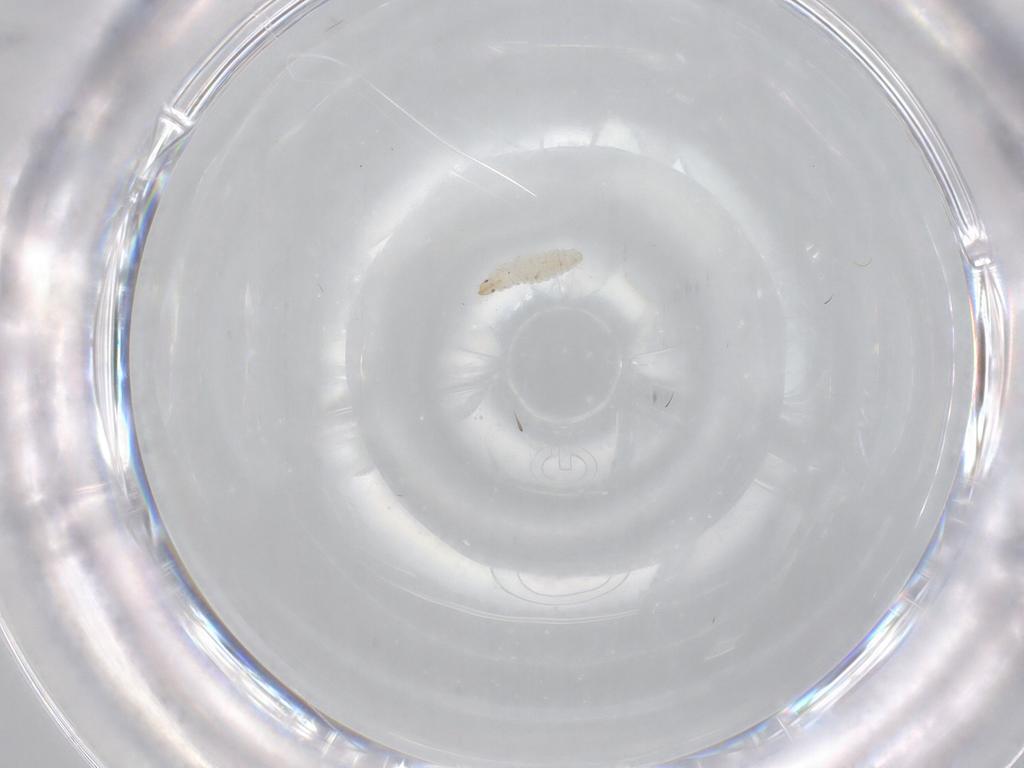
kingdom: Animalia
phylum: Arthropoda
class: Insecta
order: Diptera
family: Sciaridae
